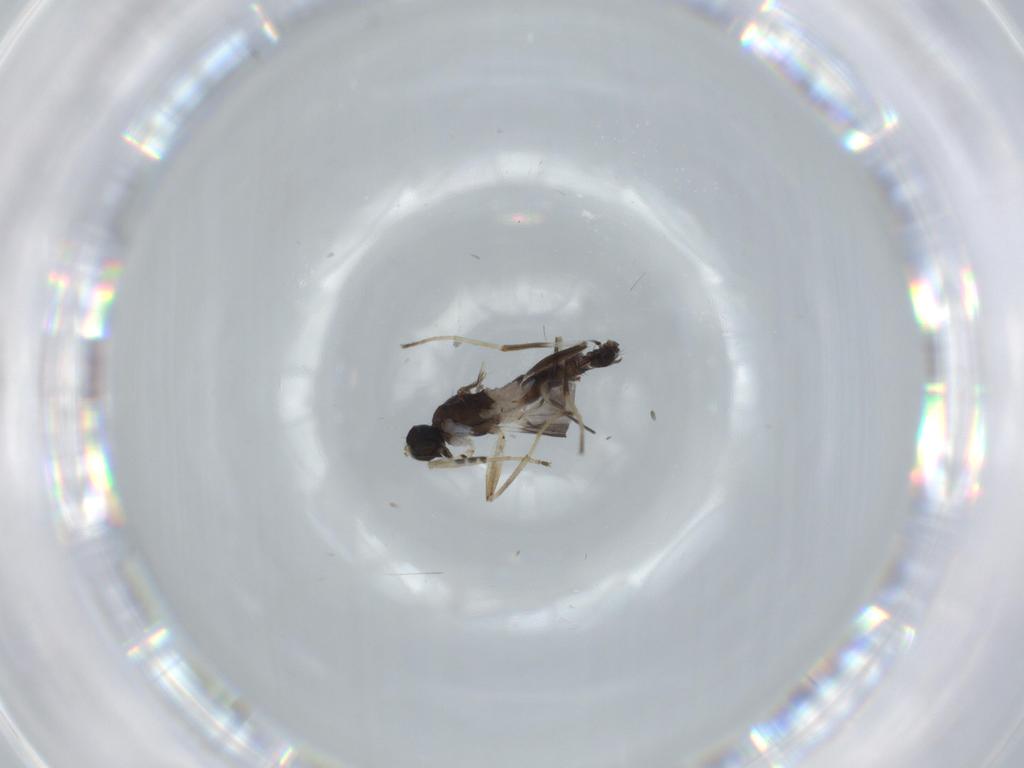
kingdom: Animalia
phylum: Arthropoda
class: Insecta
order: Diptera
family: Hybotidae
